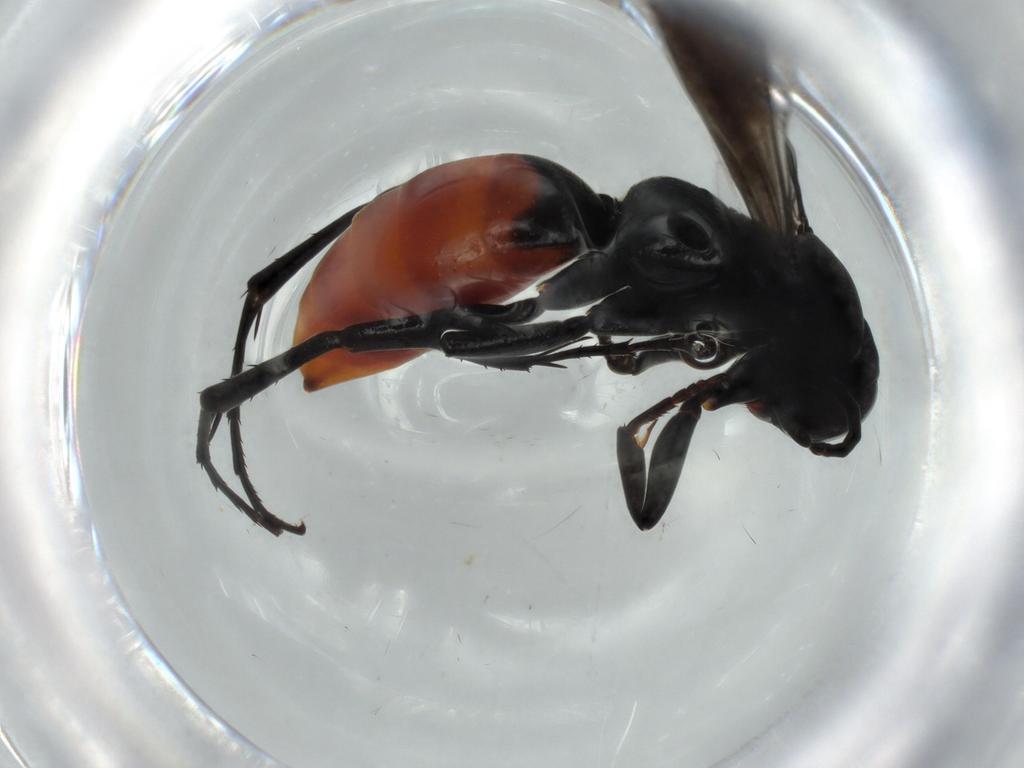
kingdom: Animalia
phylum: Arthropoda
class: Insecta
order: Hymenoptera
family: Pompilidae
